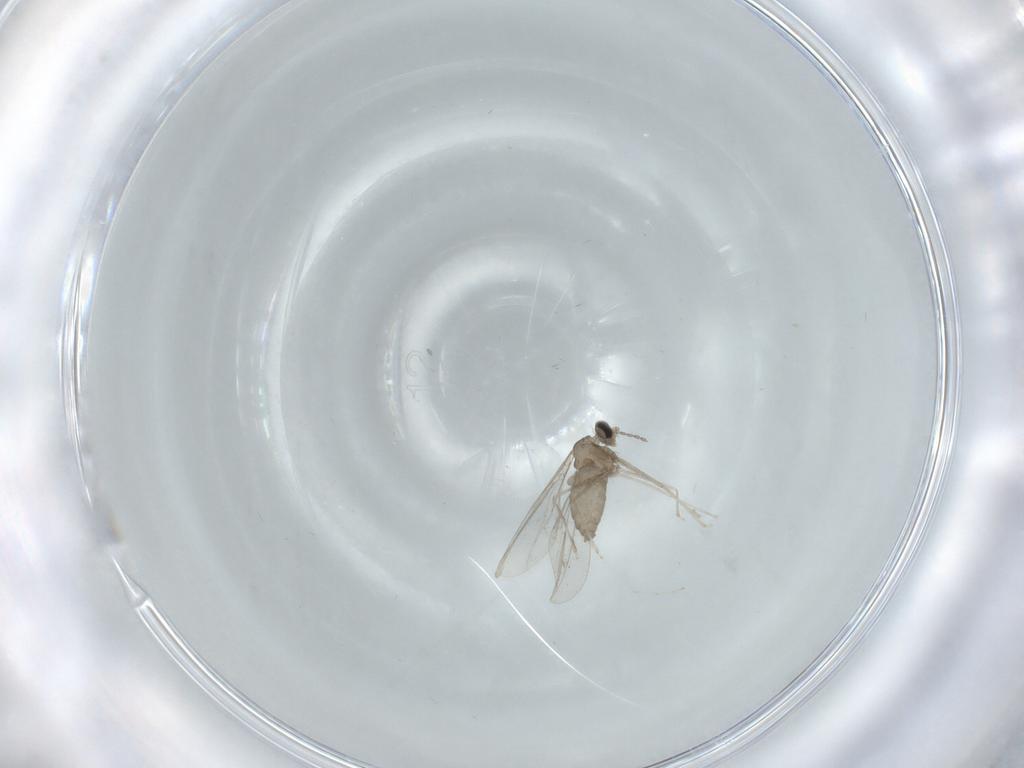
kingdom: Animalia
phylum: Arthropoda
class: Insecta
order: Diptera
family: Cecidomyiidae
